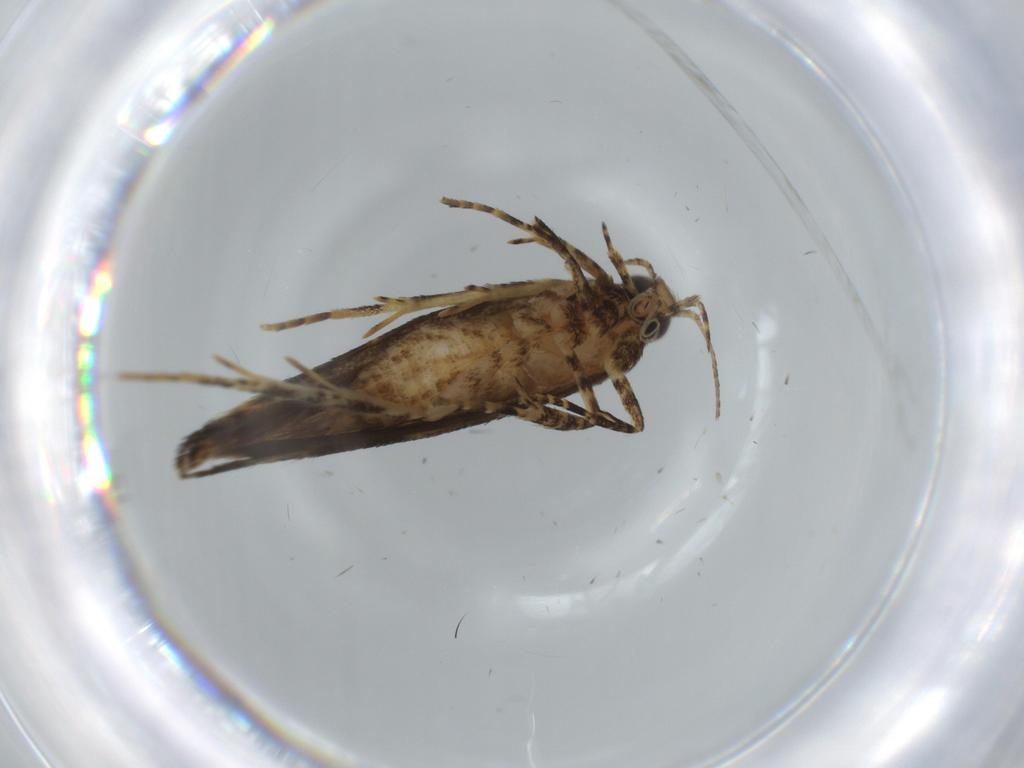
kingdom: Animalia
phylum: Arthropoda
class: Insecta
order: Lepidoptera
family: Gelechiidae
